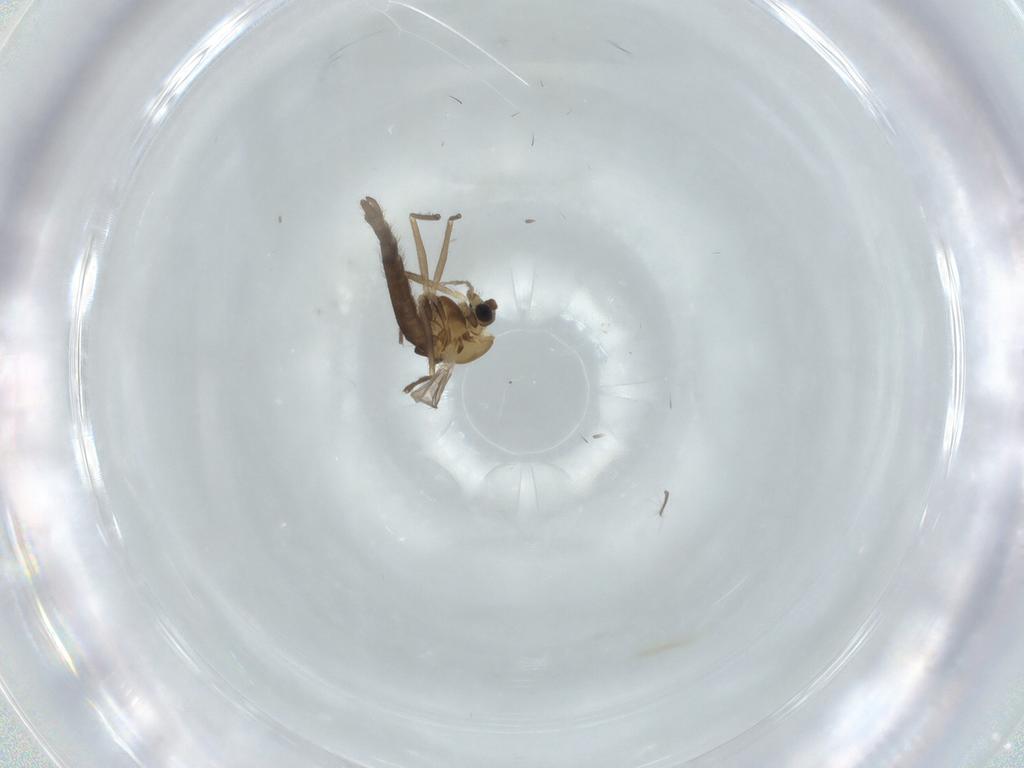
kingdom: Animalia
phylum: Arthropoda
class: Insecta
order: Diptera
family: Chironomidae
